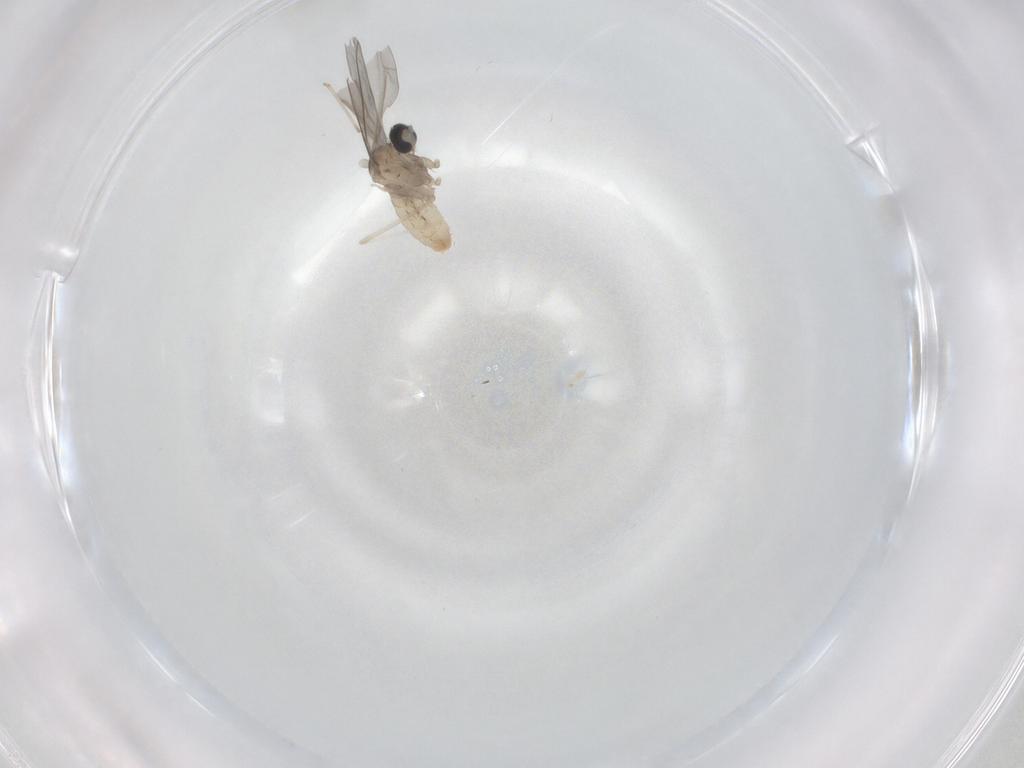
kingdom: Animalia
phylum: Arthropoda
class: Insecta
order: Diptera
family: Cecidomyiidae
